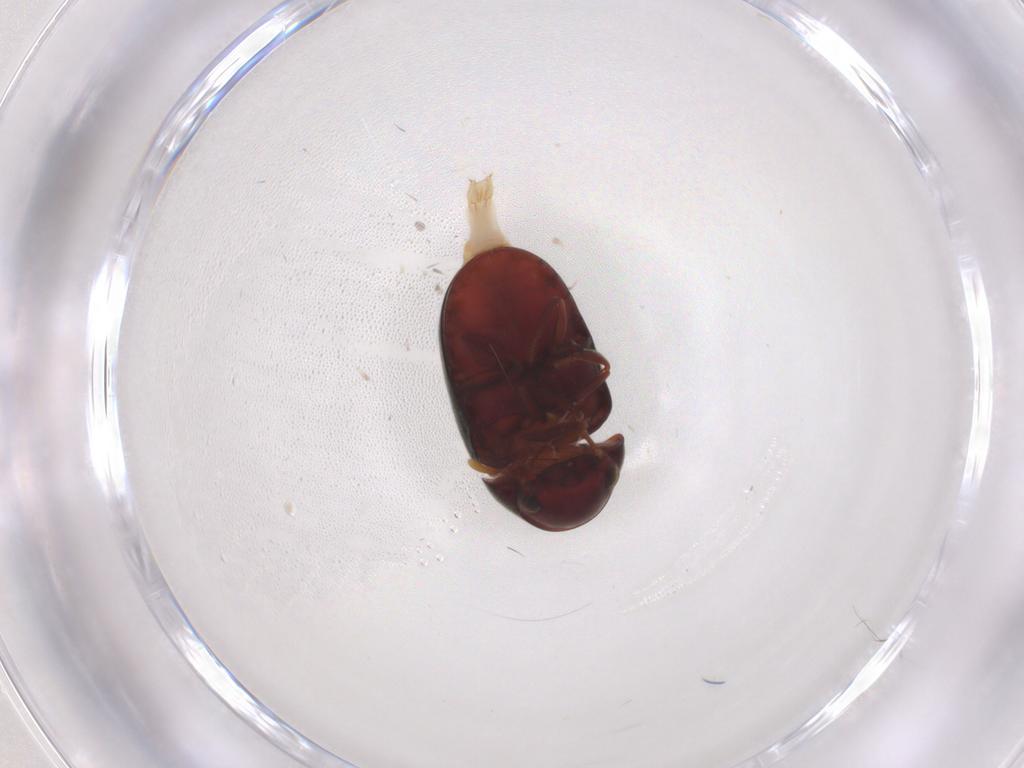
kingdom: Animalia
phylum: Arthropoda
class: Insecta
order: Coleoptera
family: Ptinidae
